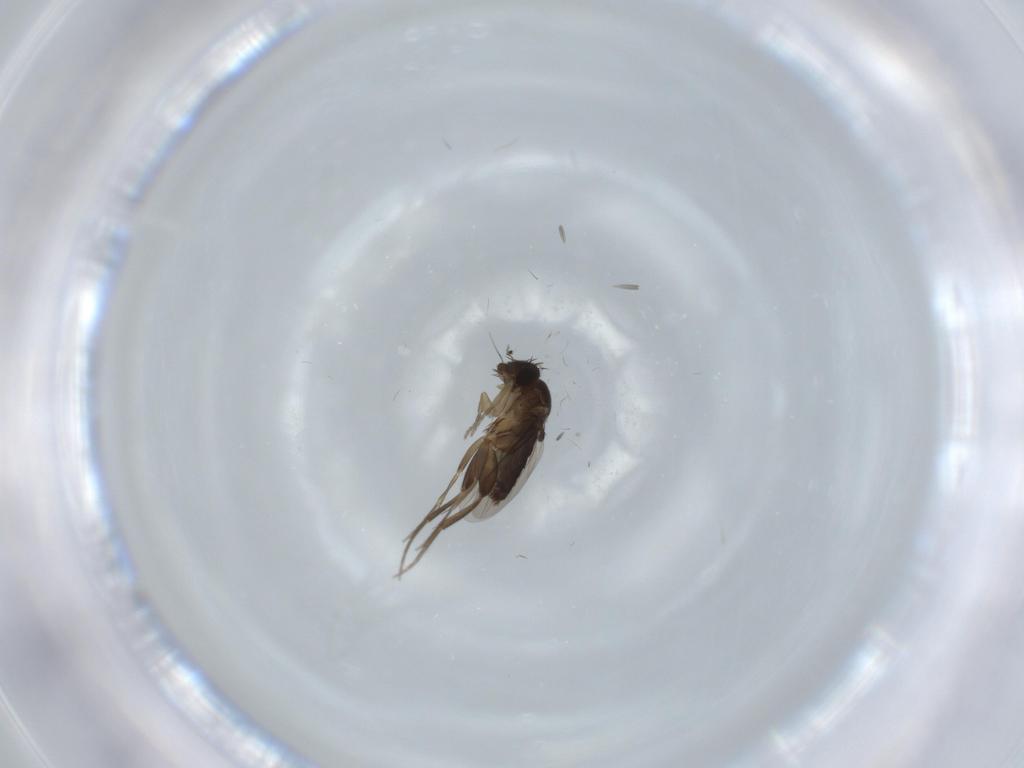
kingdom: Animalia
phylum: Arthropoda
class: Insecta
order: Diptera
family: Phoridae
